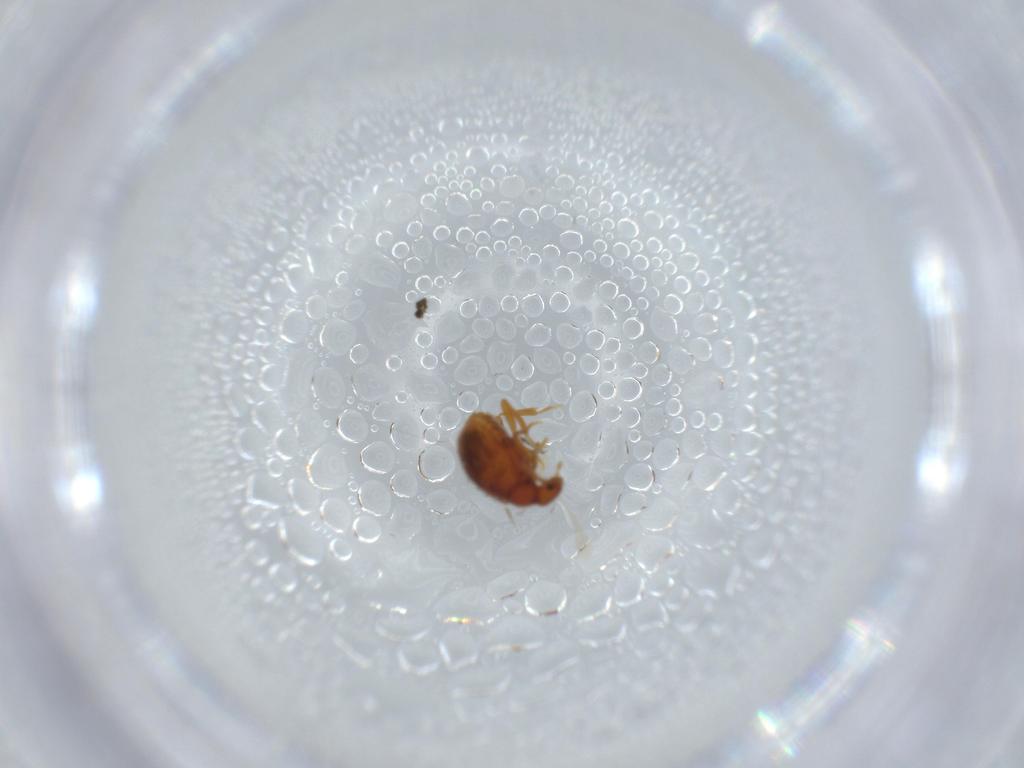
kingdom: Animalia
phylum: Arthropoda
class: Insecta
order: Coleoptera
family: Aderidae
